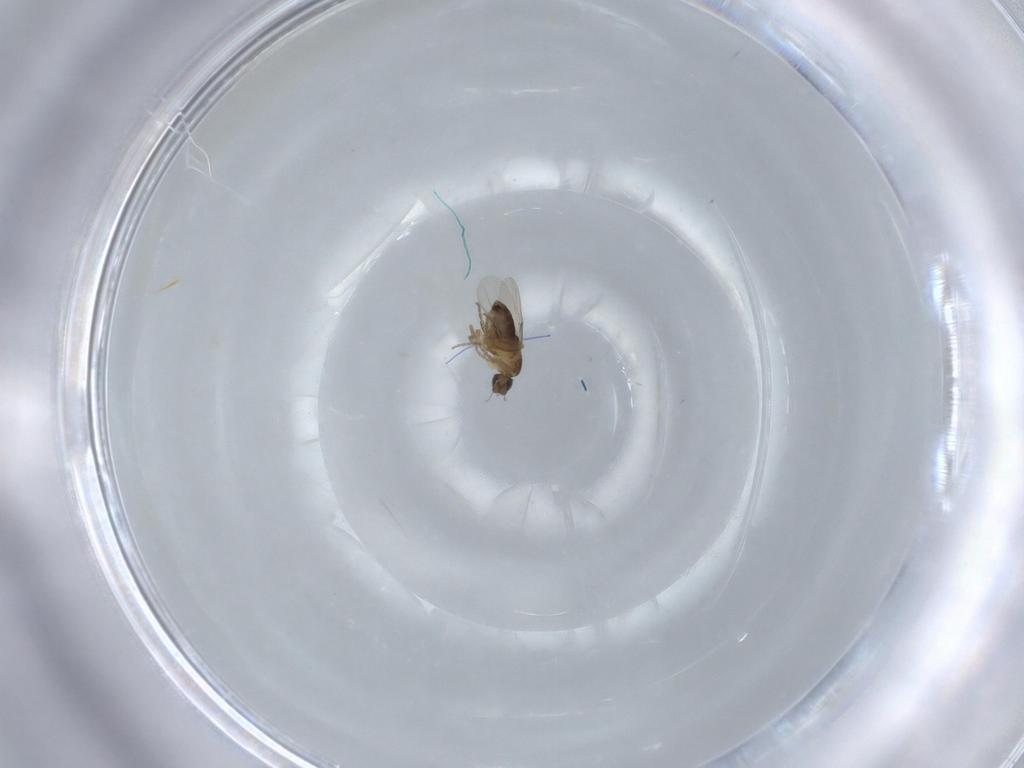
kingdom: Animalia
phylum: Arthropoda
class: Insecta
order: Diptera
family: Phoridae
